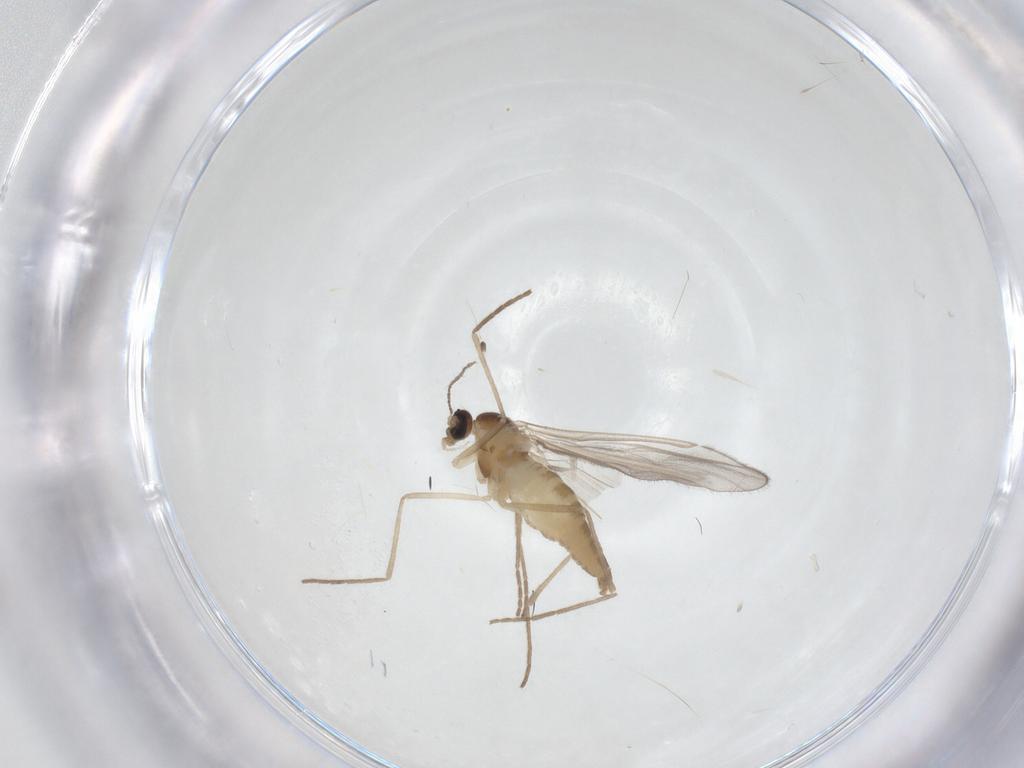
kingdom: Animalia
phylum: Arthropoda
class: Insecta
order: Diptera
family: Cecidomyiidae
